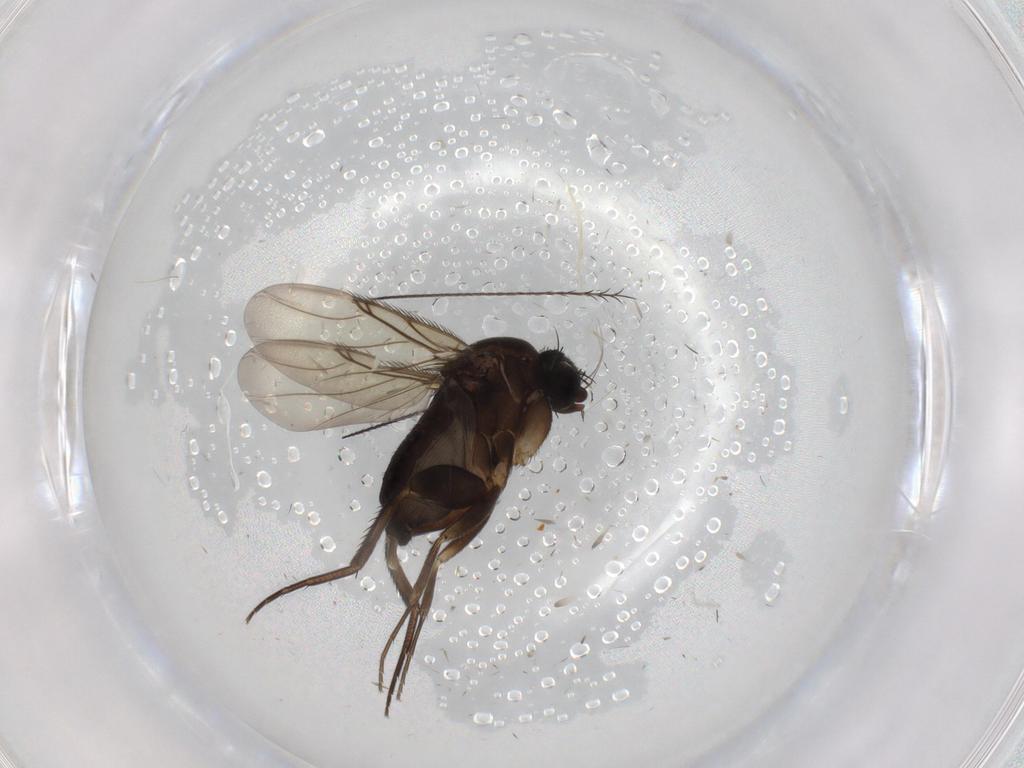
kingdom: Animalia
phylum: Arthropoda
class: Insecta
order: Diptera
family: Phoridae
